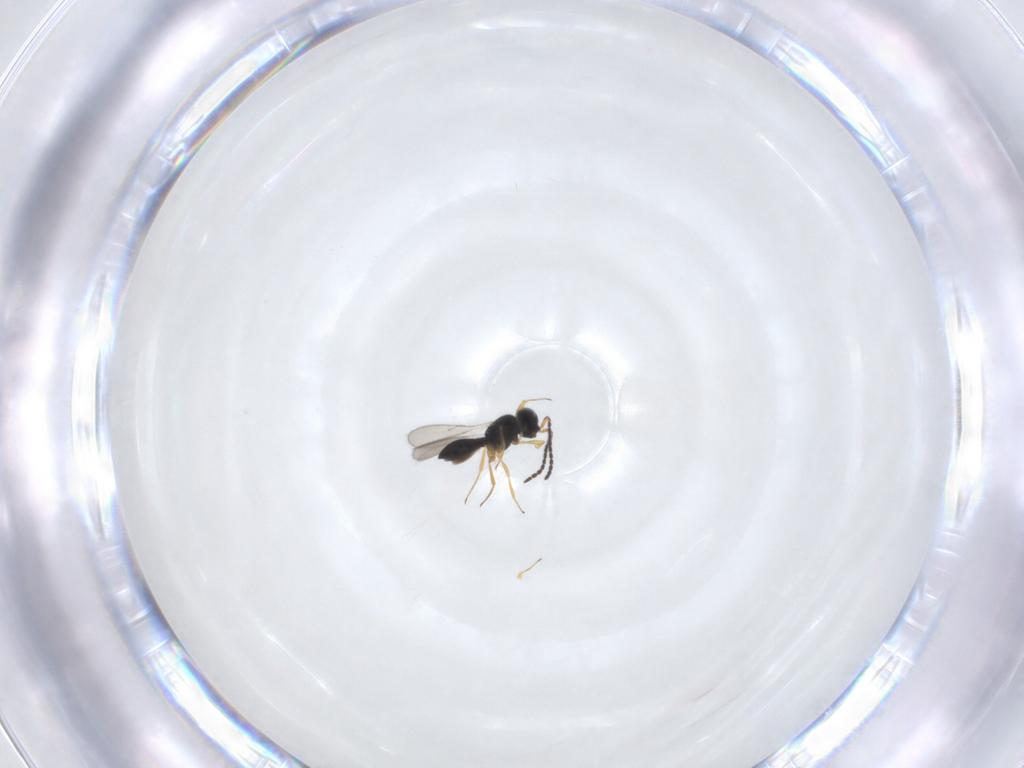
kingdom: Animalia
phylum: Arthropoda
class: Insecta
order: Hymenoptera
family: Scelionidae
